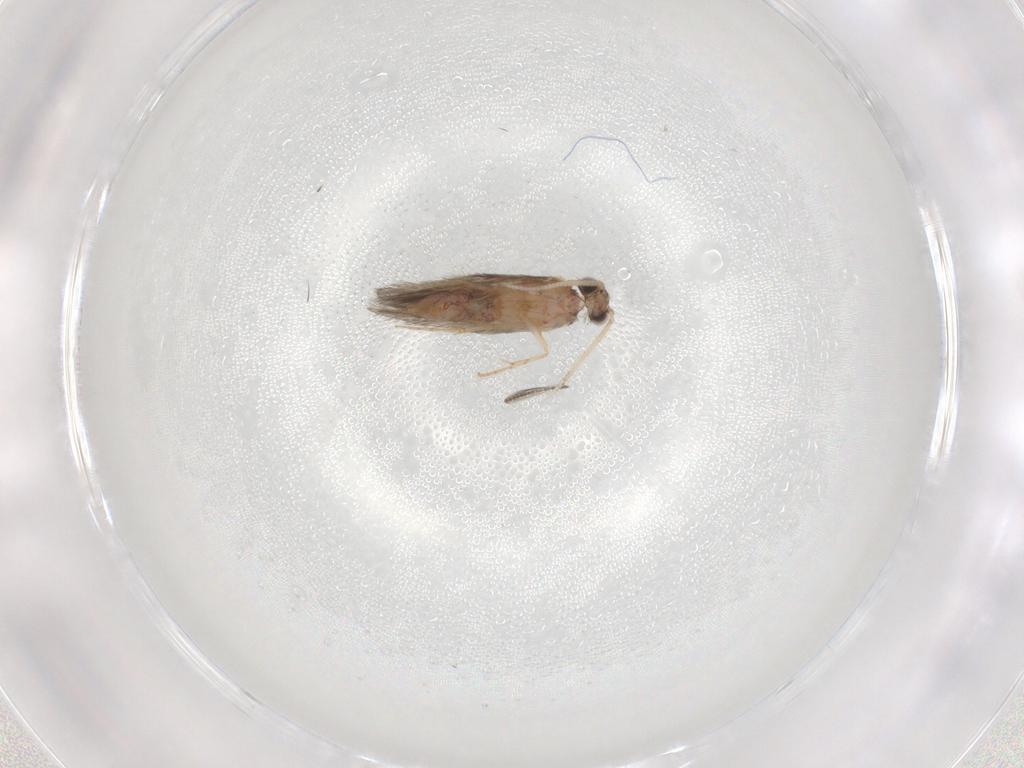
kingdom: Animalia
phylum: Arthropoda
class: Insecta
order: Trichoptera
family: Hydroptilidae
